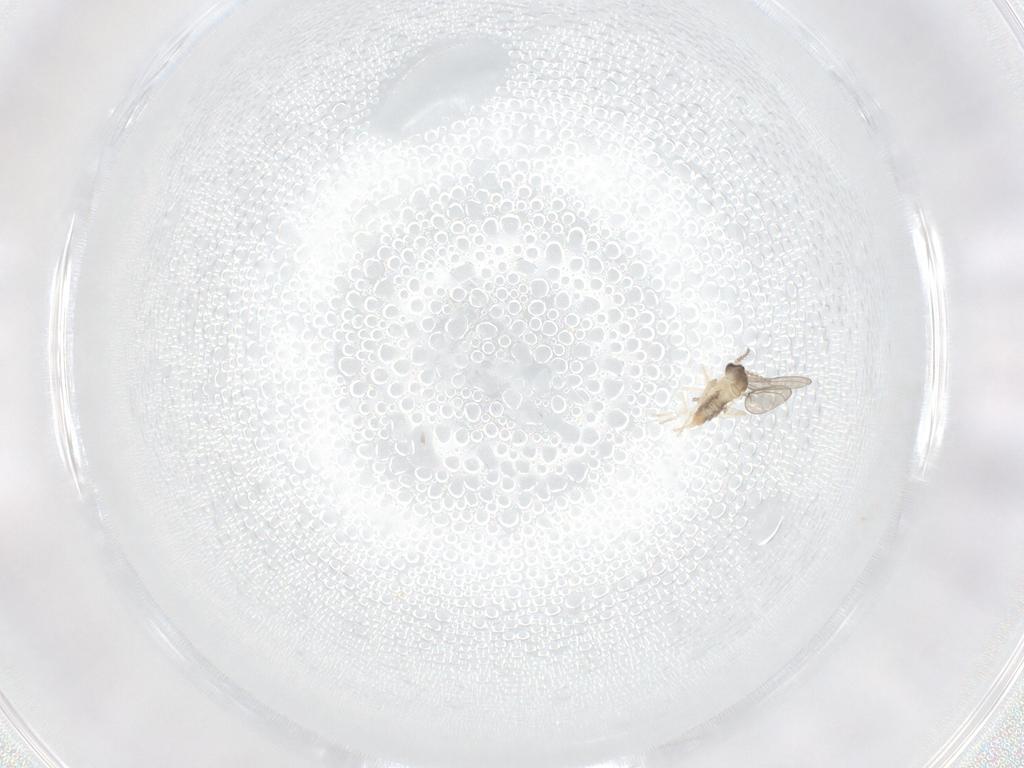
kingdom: Animalia
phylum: Arthropoda
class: Insecta
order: Diptera
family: Cecidomyiidae
